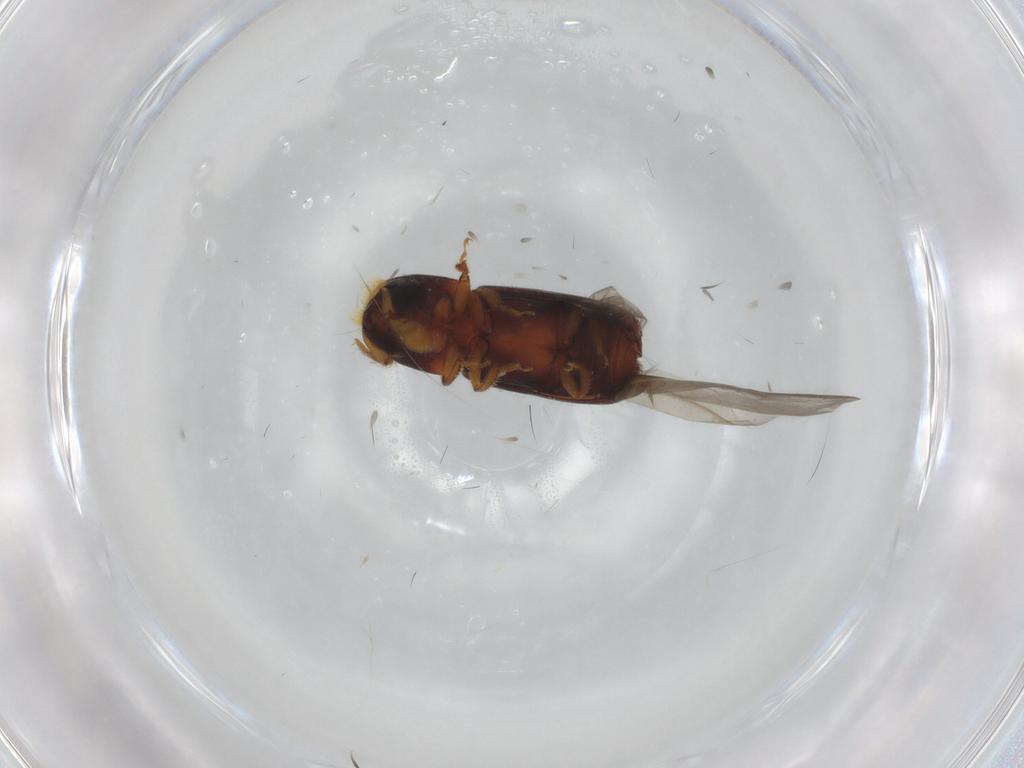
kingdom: Animalia
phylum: Arthropoda
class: Insecta
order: Coleoptera
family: Curculionidae
